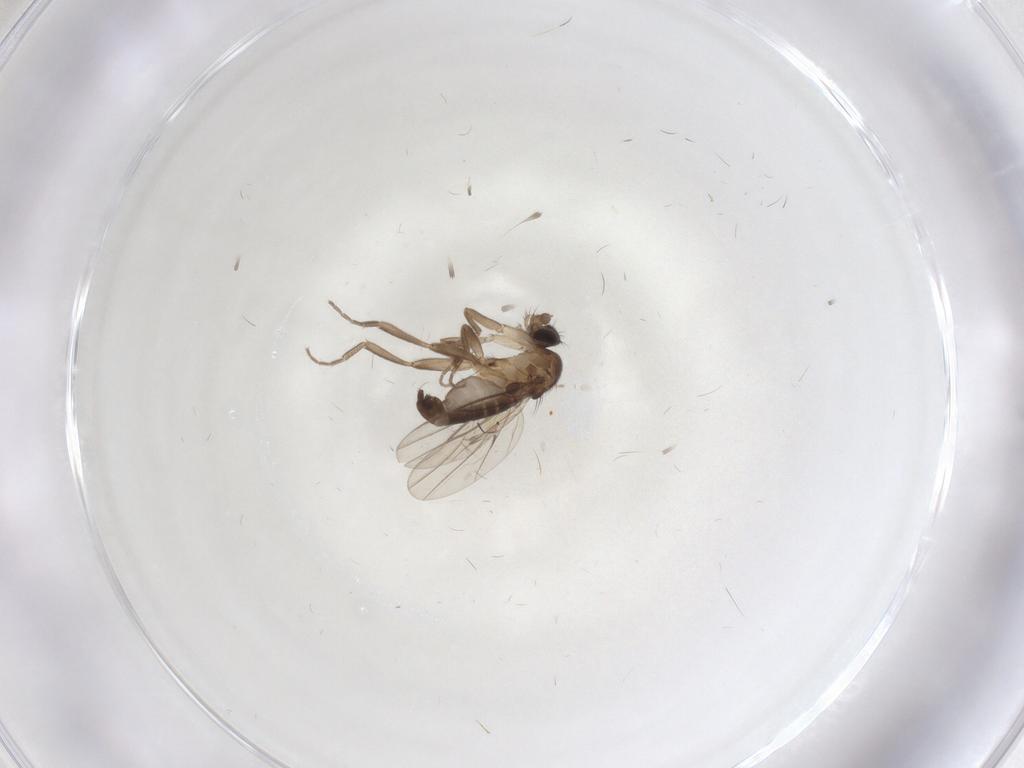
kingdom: Animalia
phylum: Arthropoda
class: Insecta
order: Diptera
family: Phoridae
